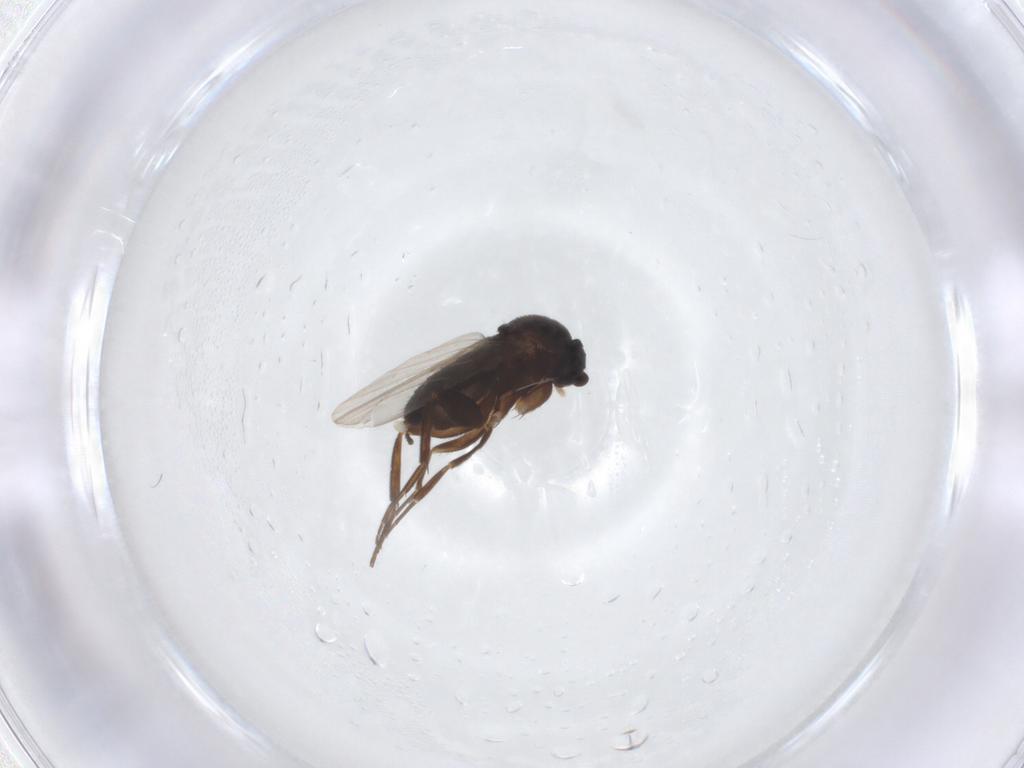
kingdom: Animalia
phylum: Arthropoda
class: Insecta
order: Diptera
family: Phoridae
